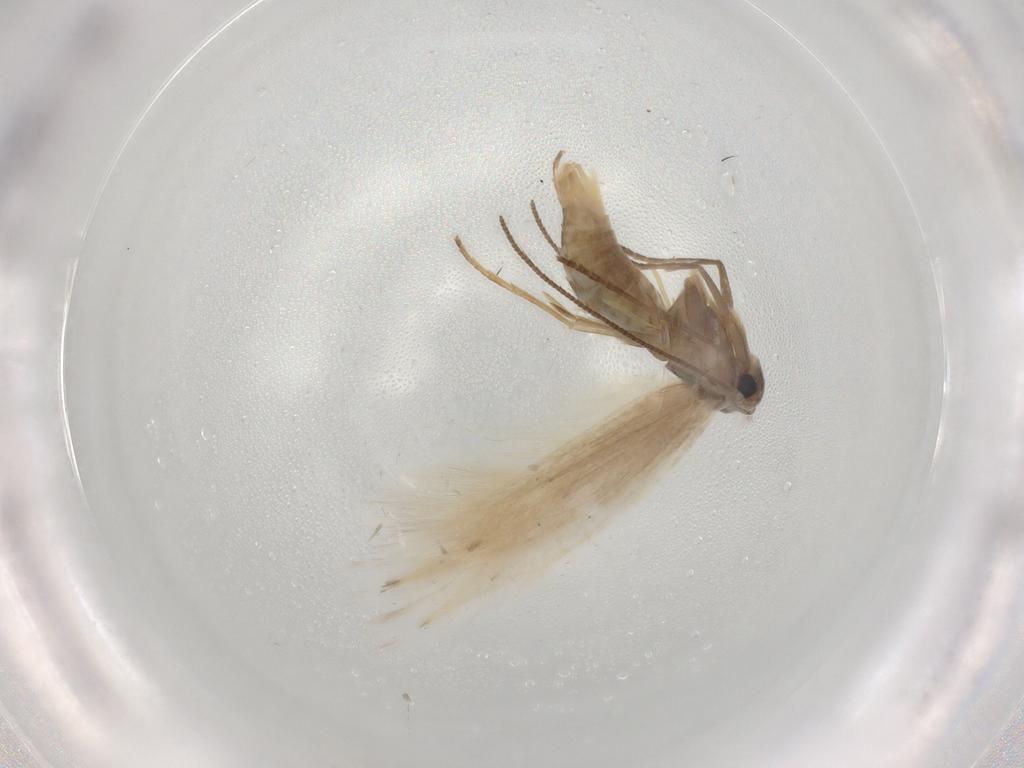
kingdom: Animalia
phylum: Arthropoda
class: Insecta
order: Lepidoptera
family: Bucculatricidae
